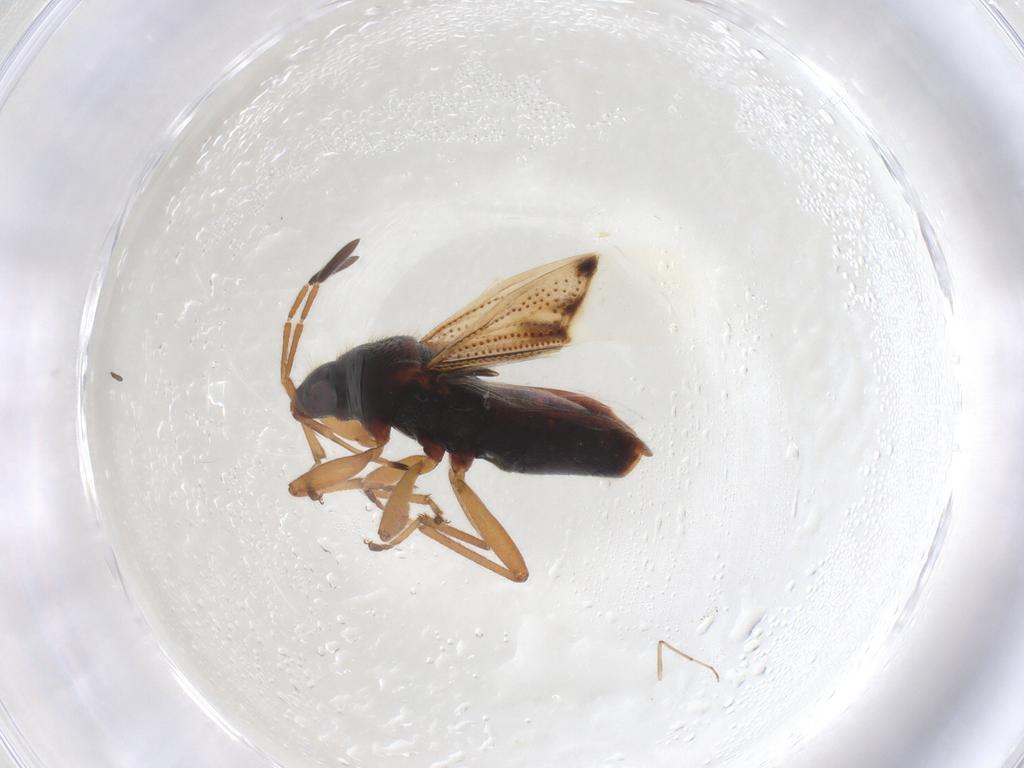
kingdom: Animalia
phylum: Arthropoda
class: Insecta
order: Hemiptera
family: Rhyparochromidae
